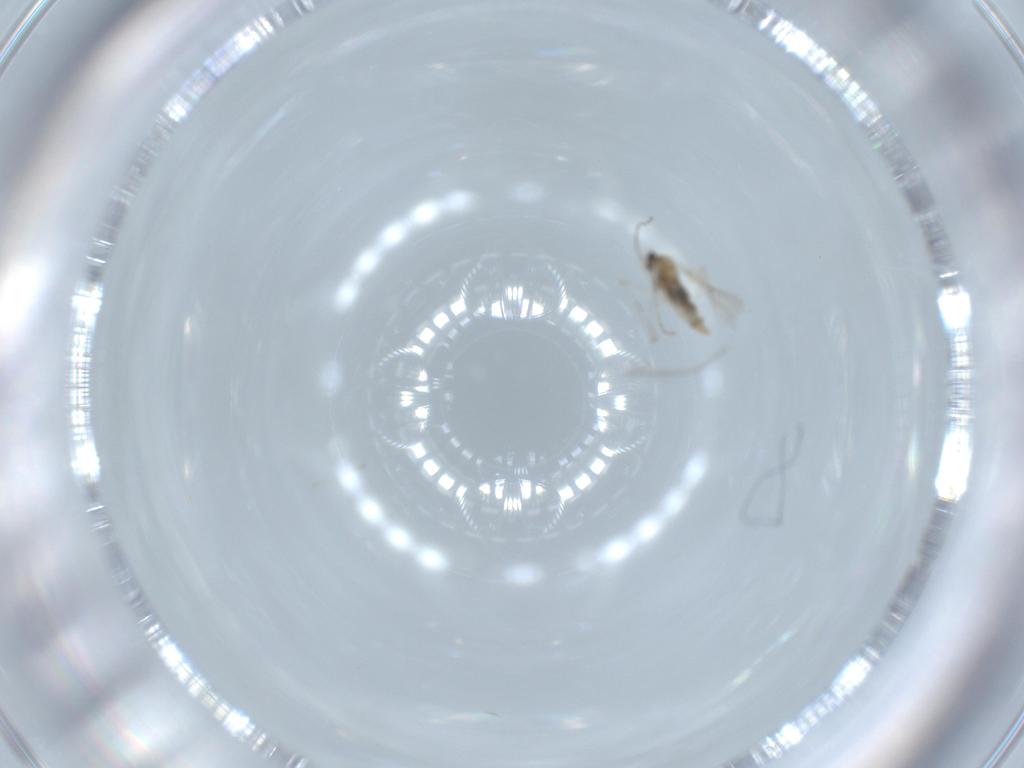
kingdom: Animalia
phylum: Arthropoda
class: Insecta
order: Diptera
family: Cecidomyiidae
